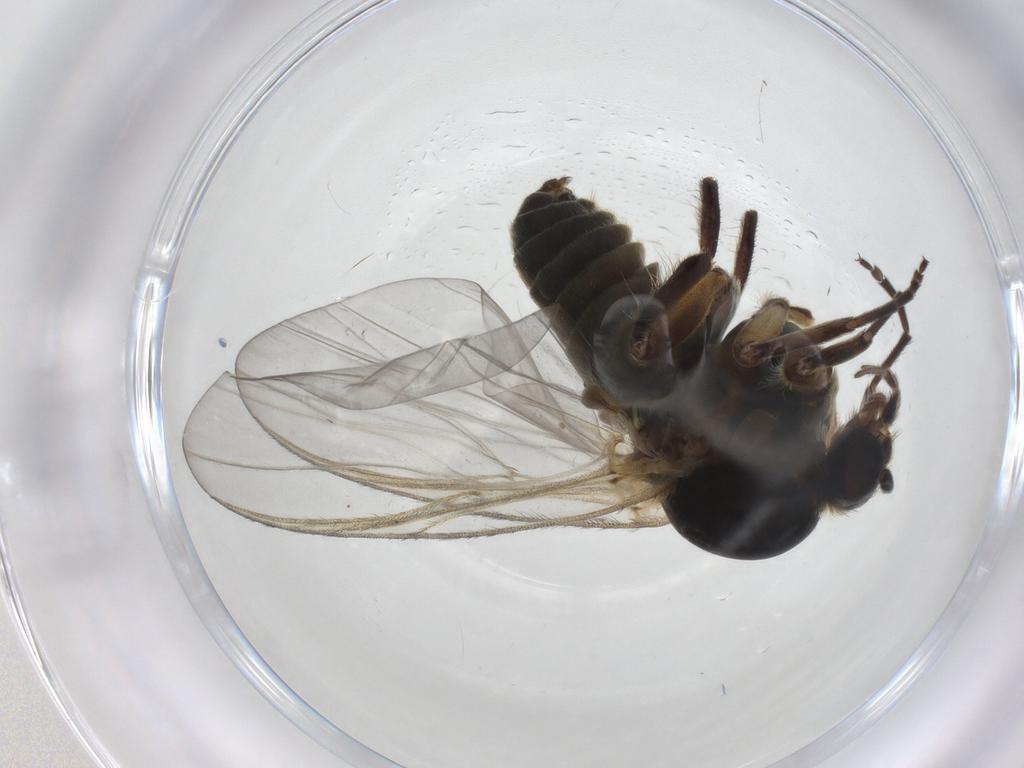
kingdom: Animalia
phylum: Arthropoda
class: Insecta
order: Diptera
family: Simuliidae
